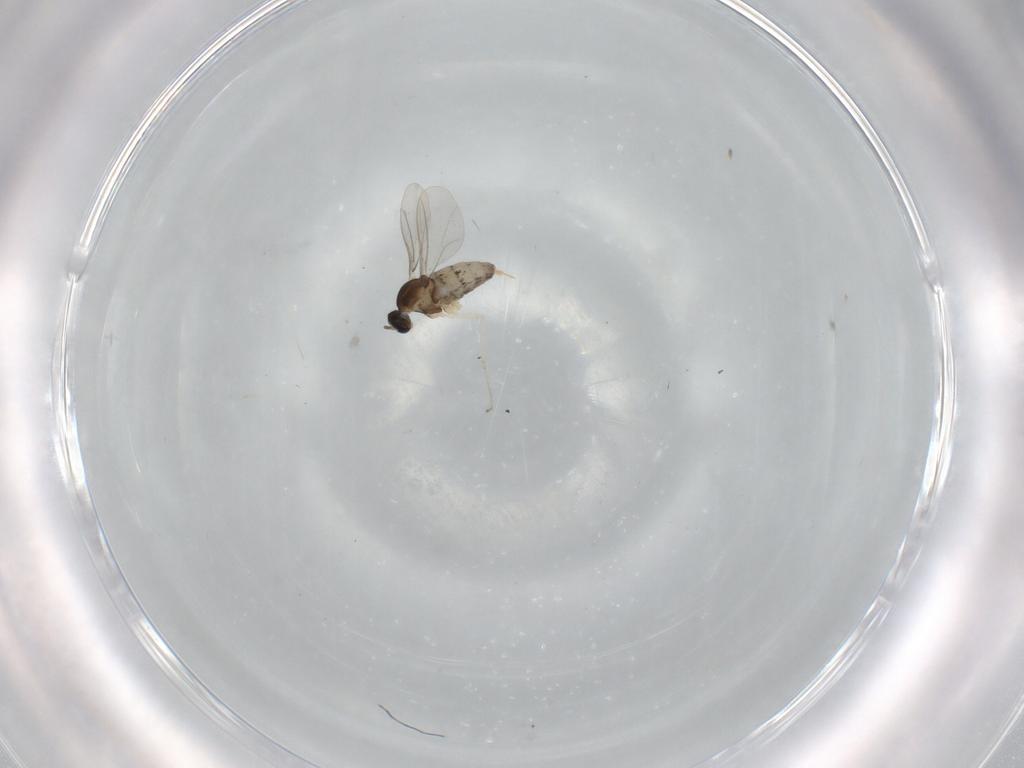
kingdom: Animalia
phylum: Arthropoda
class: Insecta
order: Diptera
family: Cecidomyiidae
